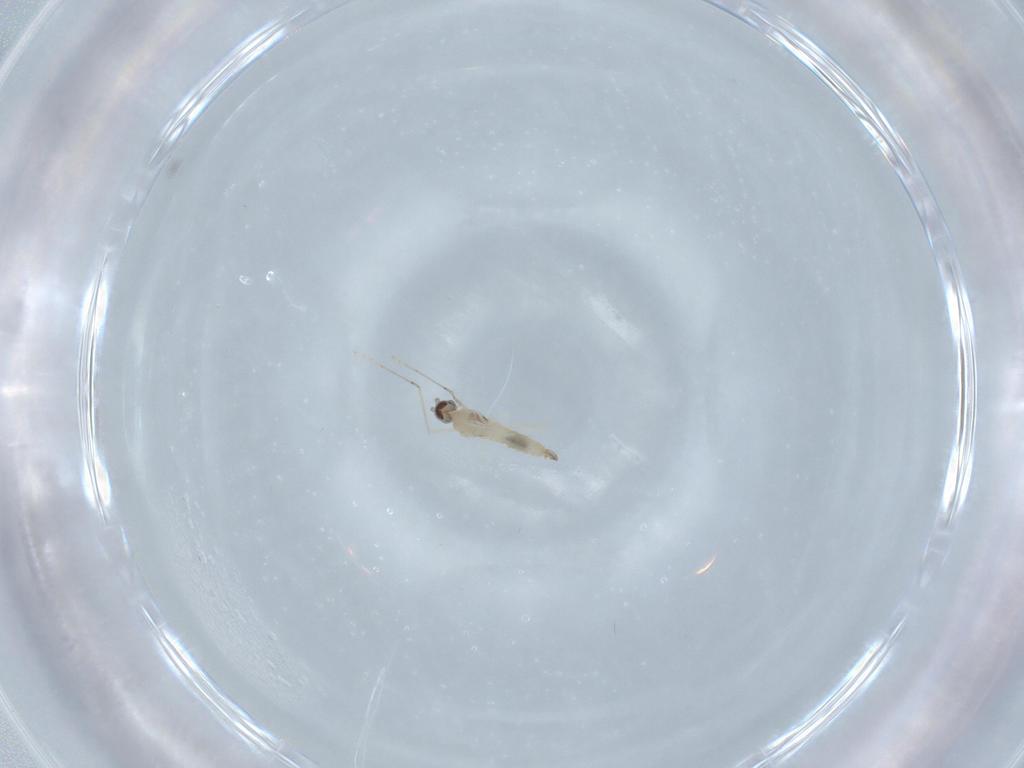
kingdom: Animalia
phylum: Arthropoda
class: Insecta
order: Diptera
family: Cecidomyiidae
